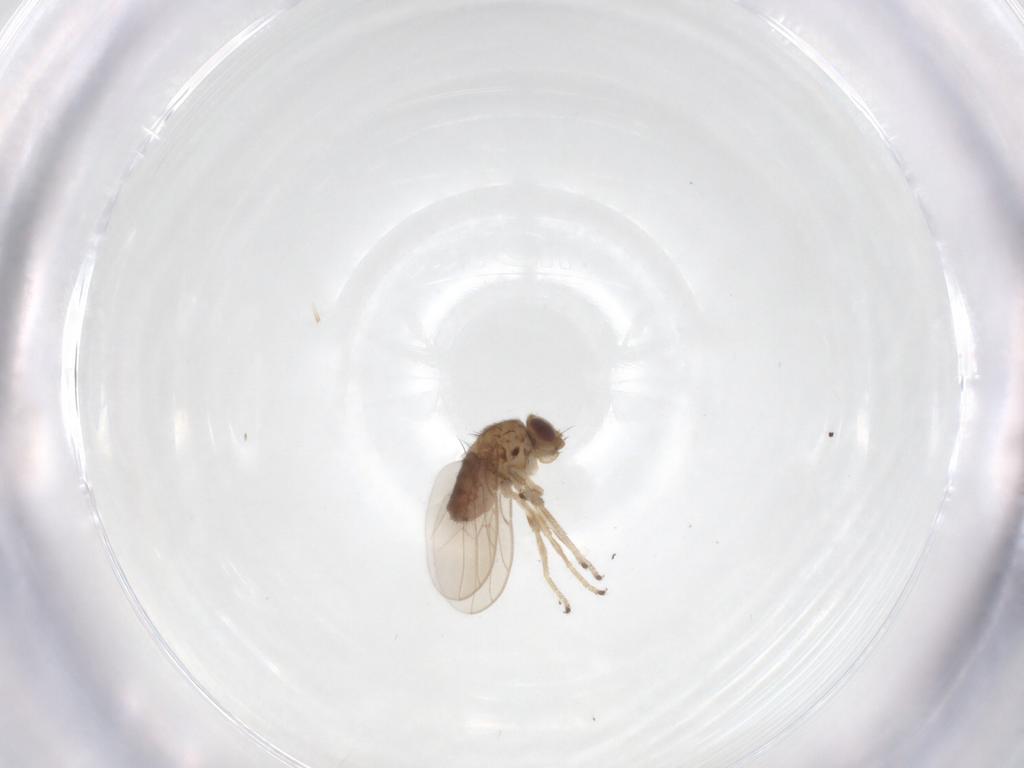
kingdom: Animalia
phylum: Arthropoda
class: Insecta
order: Diptera
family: Chloropidae
